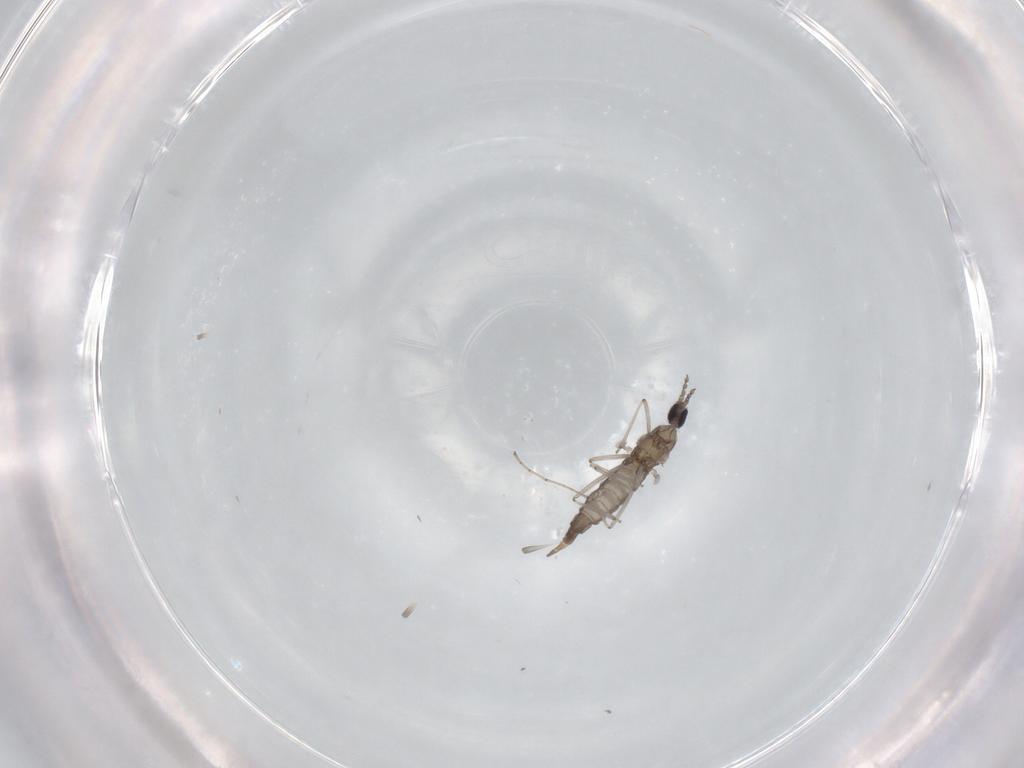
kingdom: Animalia
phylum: Arthropoda
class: Insecta
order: Diptera
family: Cecidomyiidae
